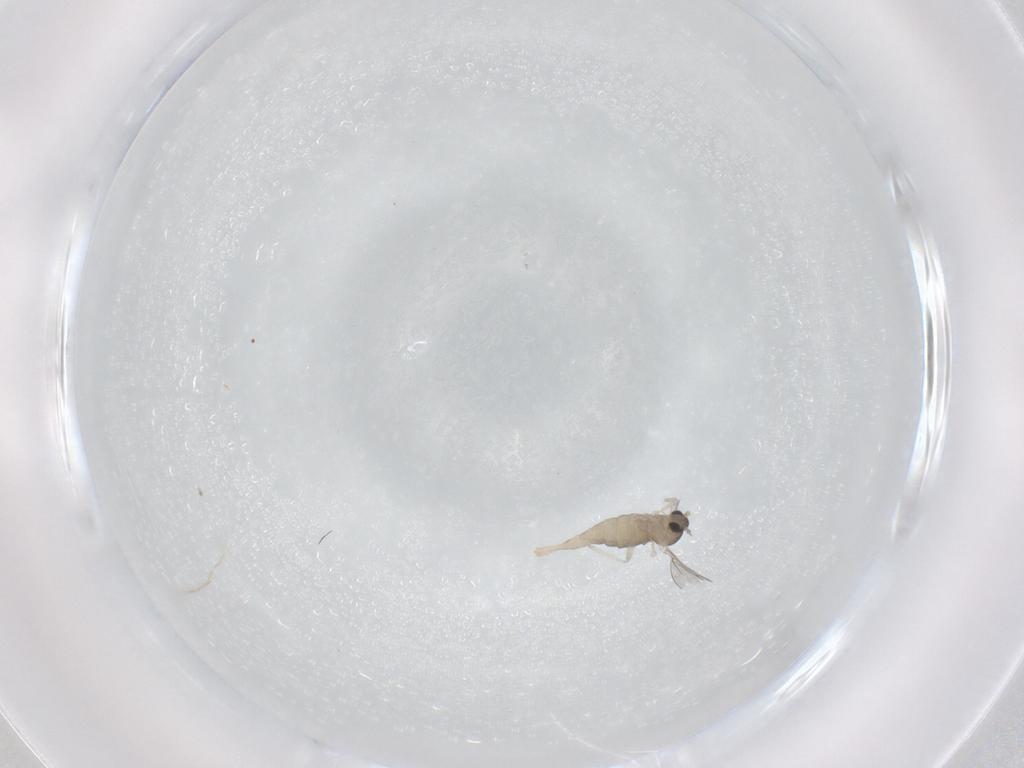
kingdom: Animalia
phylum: Arthropoda
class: Insecta
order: Diptera
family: Cecidomyiidae
